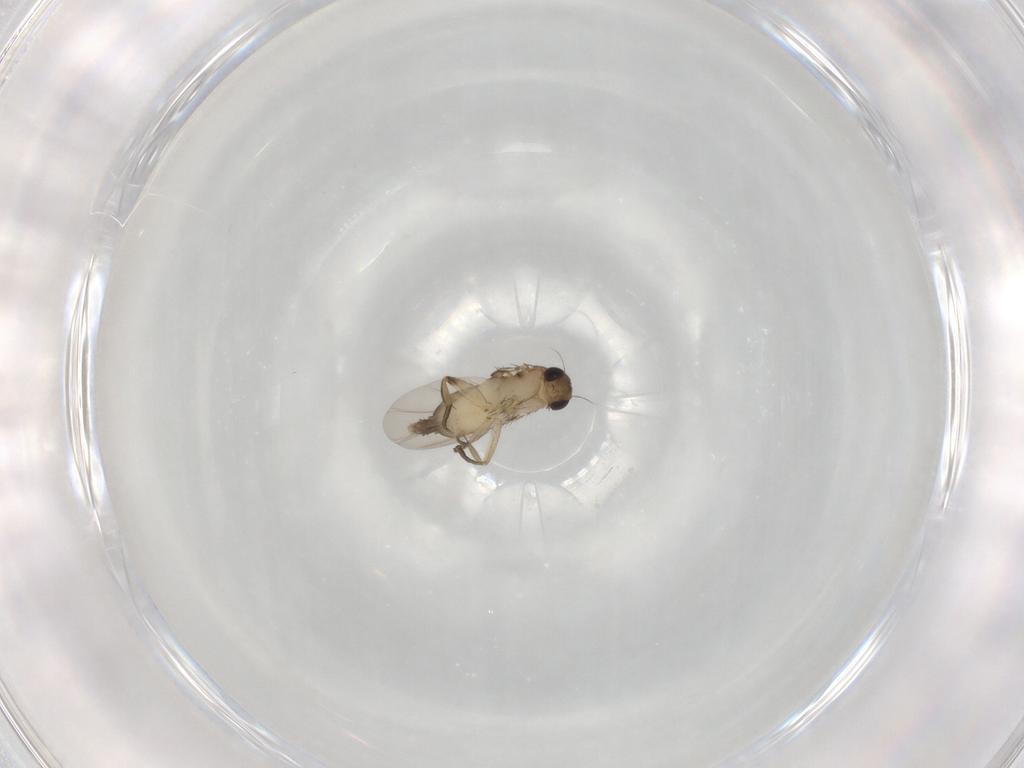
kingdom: Animalia
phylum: Arthropoda
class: Insecta
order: Diptera
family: Phoridae
